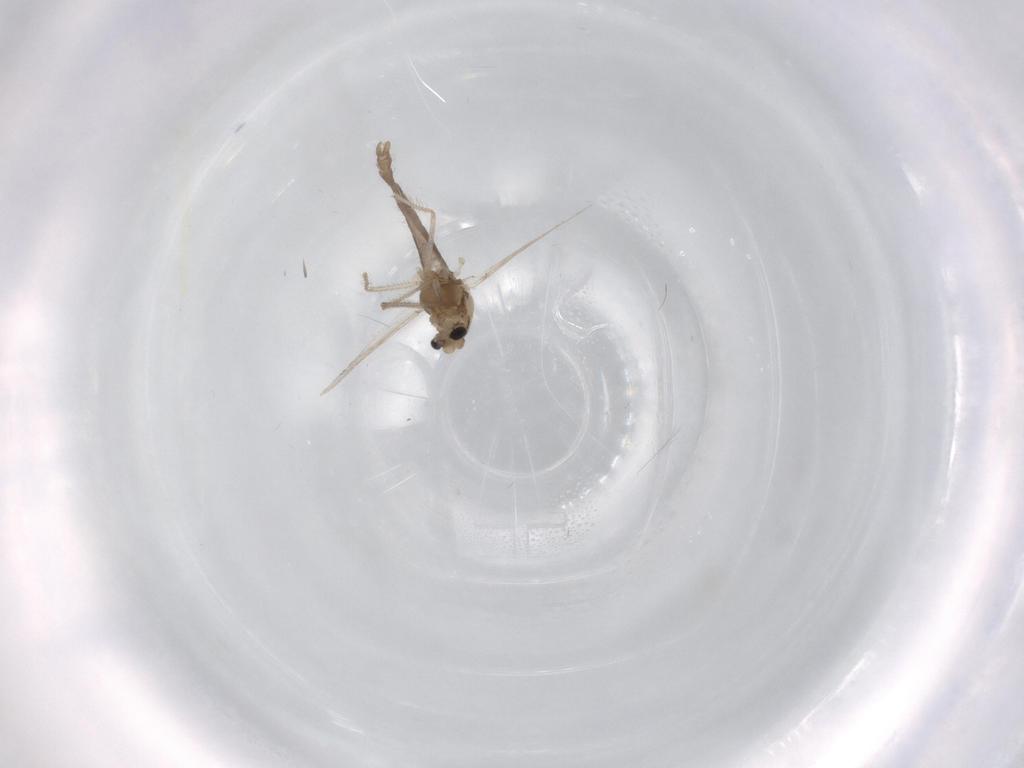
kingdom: Animalia
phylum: Arthropoda
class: Insecta
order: Diptera
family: Chironomidae
